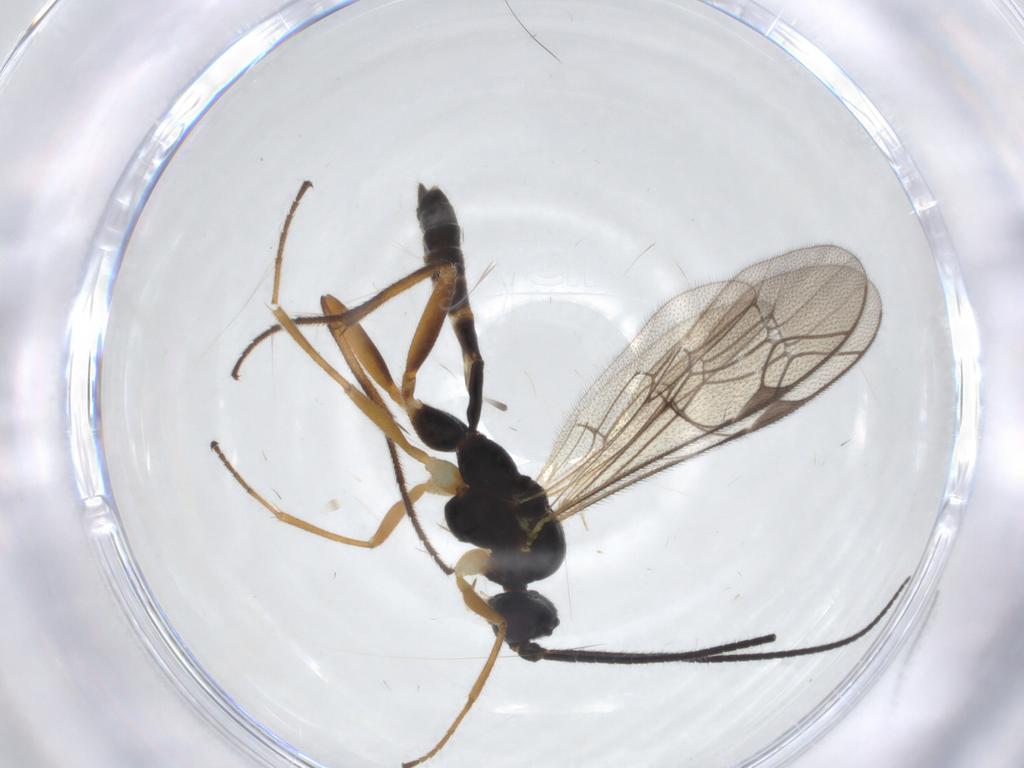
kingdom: Animalia
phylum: Arthropoda
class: Insecta
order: Hymenoptera
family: Ichneumonidae
